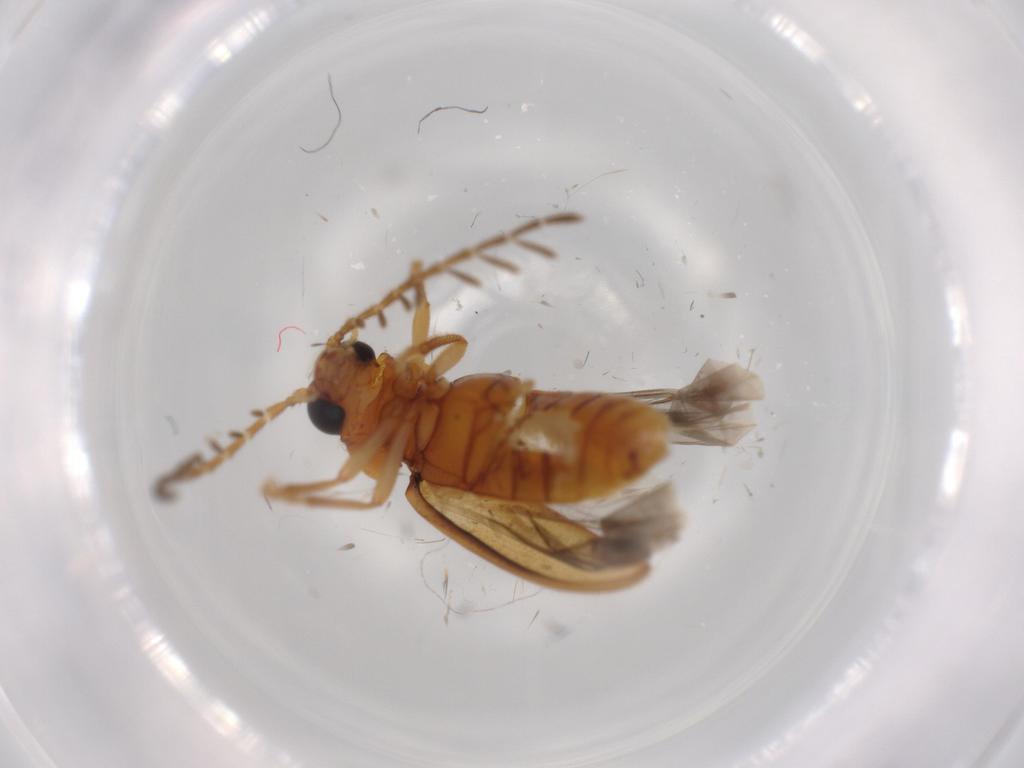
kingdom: Animalia
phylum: Arthropoda
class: Insecta
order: Coleoptera
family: Ptilodactylidae
